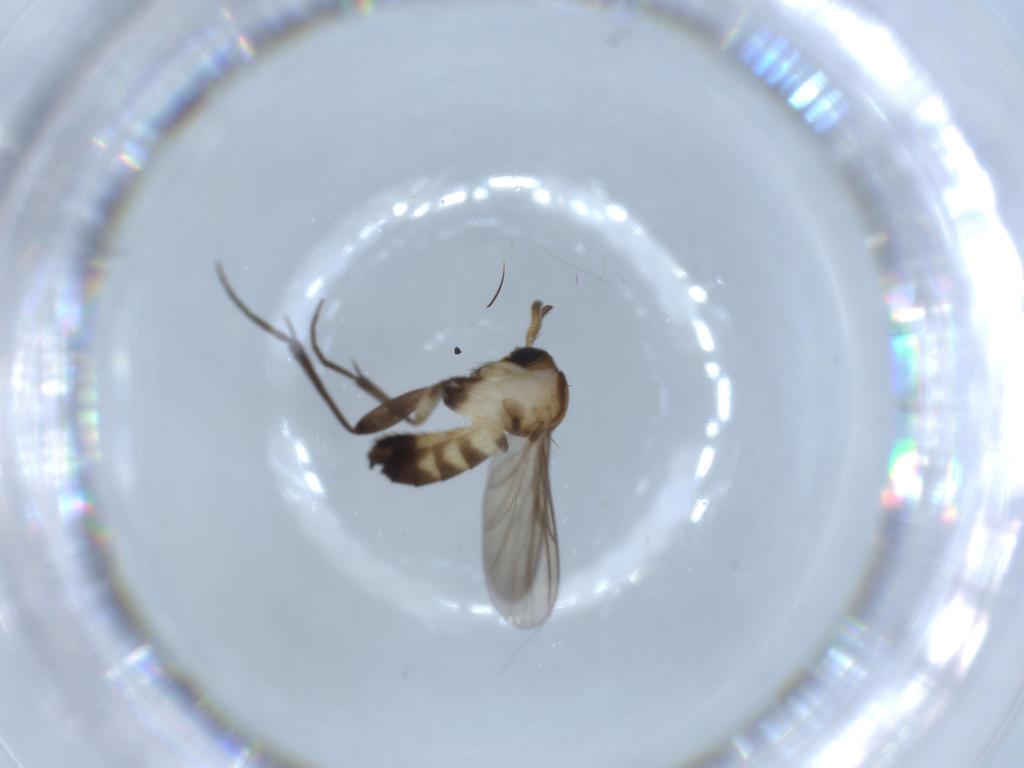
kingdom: Animalia
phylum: Arthropoda
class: Insecta
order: Diptera
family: Mycetophilidae
